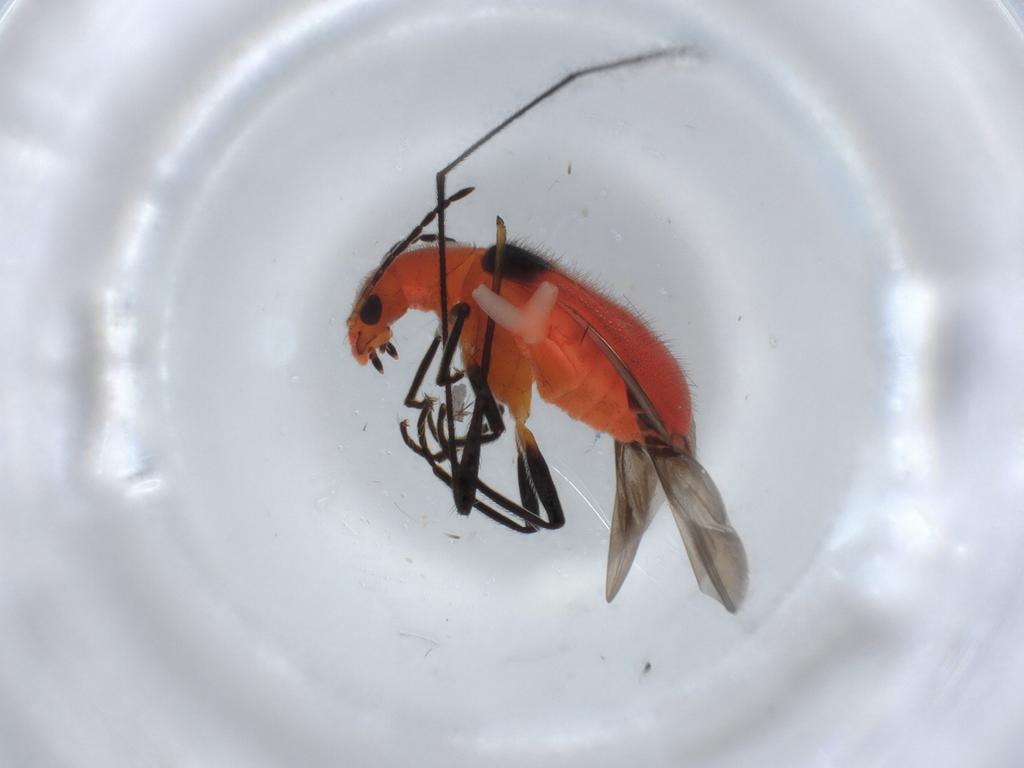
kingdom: Animalia
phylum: Arthropoda
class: Insecta
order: Coleoptera
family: Melyridae
